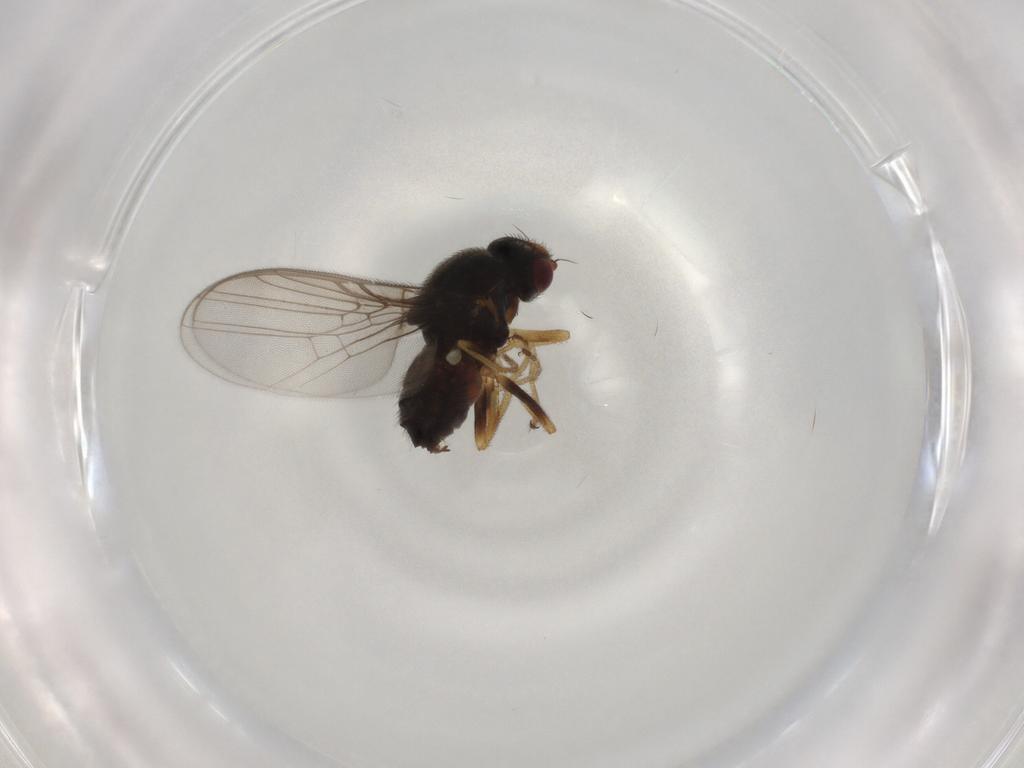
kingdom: Animalia
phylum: Arthropoda
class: Insecta
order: Diptera
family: Chloropidae
